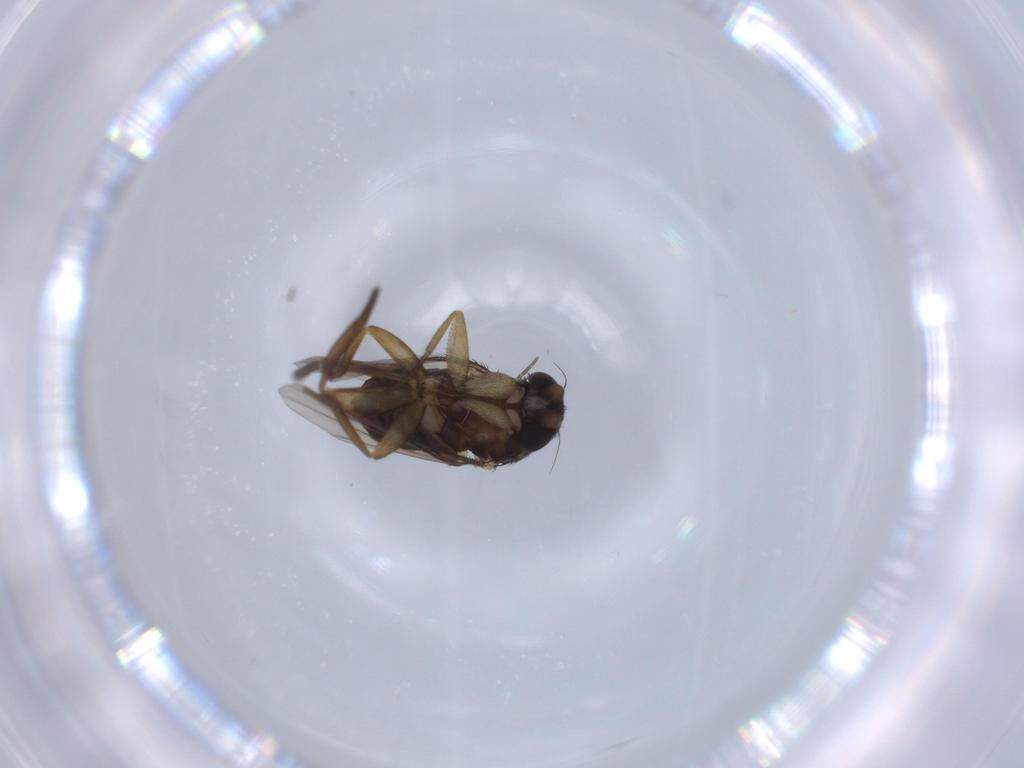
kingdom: Animalia
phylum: Arthropoda
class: Insecta
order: Diptera
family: Phoridae
